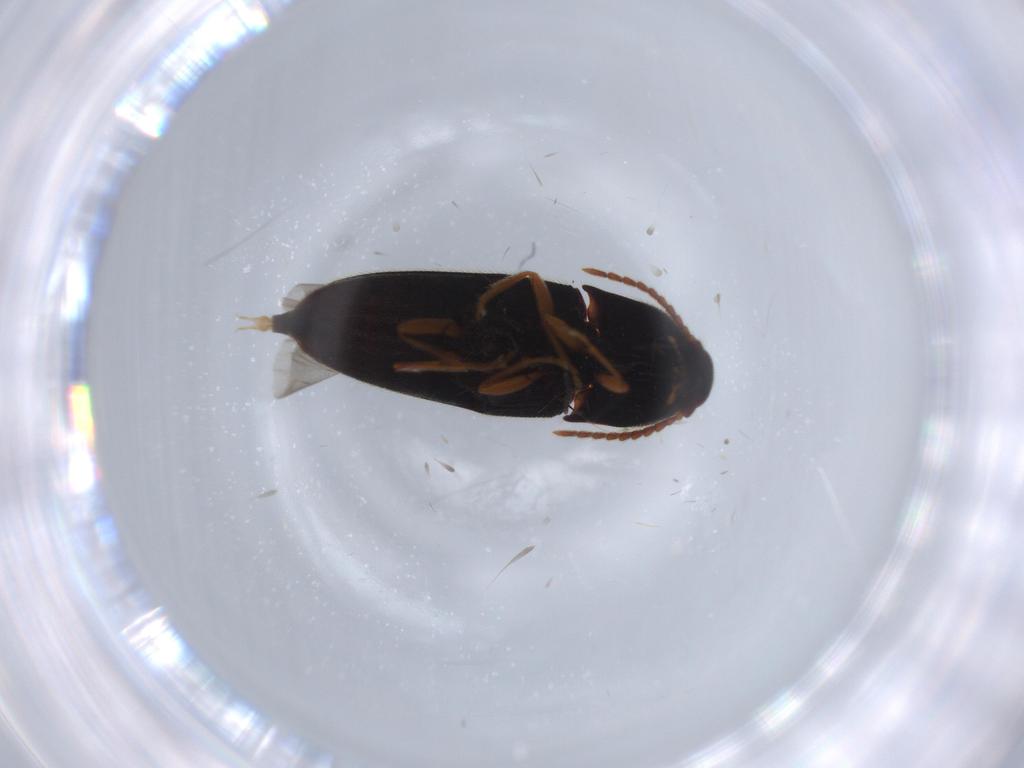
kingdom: Animalia
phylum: Arthropoda
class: Insecta
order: Coleoptera
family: Elateridae
